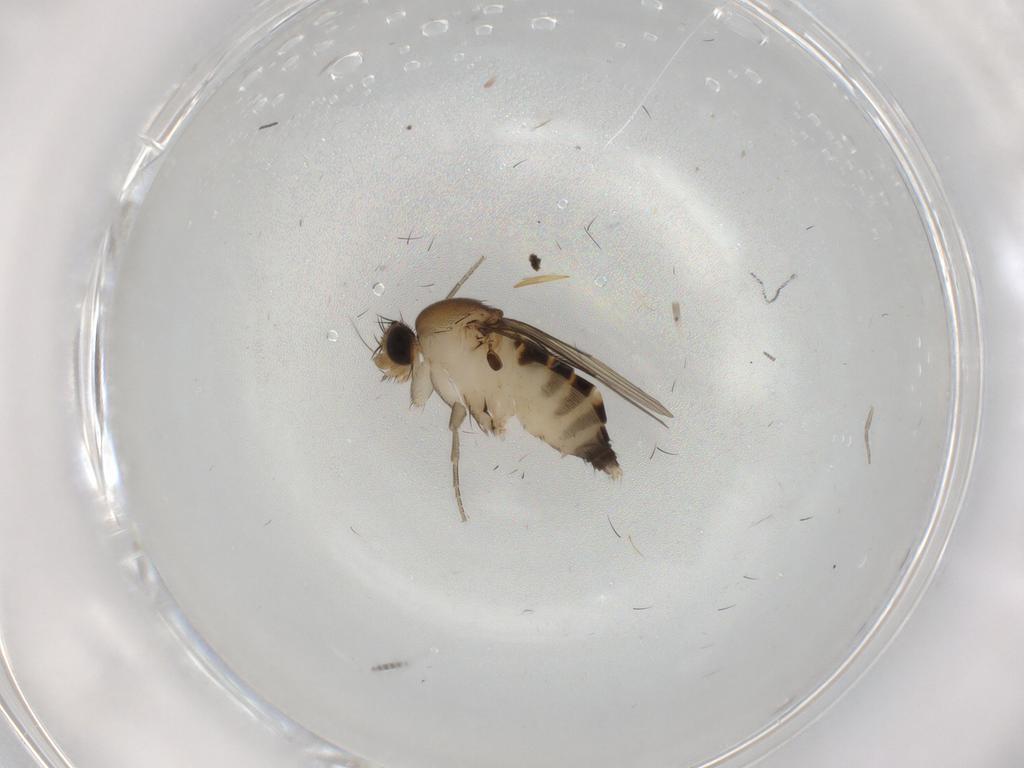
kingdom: Animalia
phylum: Arthropoda
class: Insecta
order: Diptera
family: Phoridae
